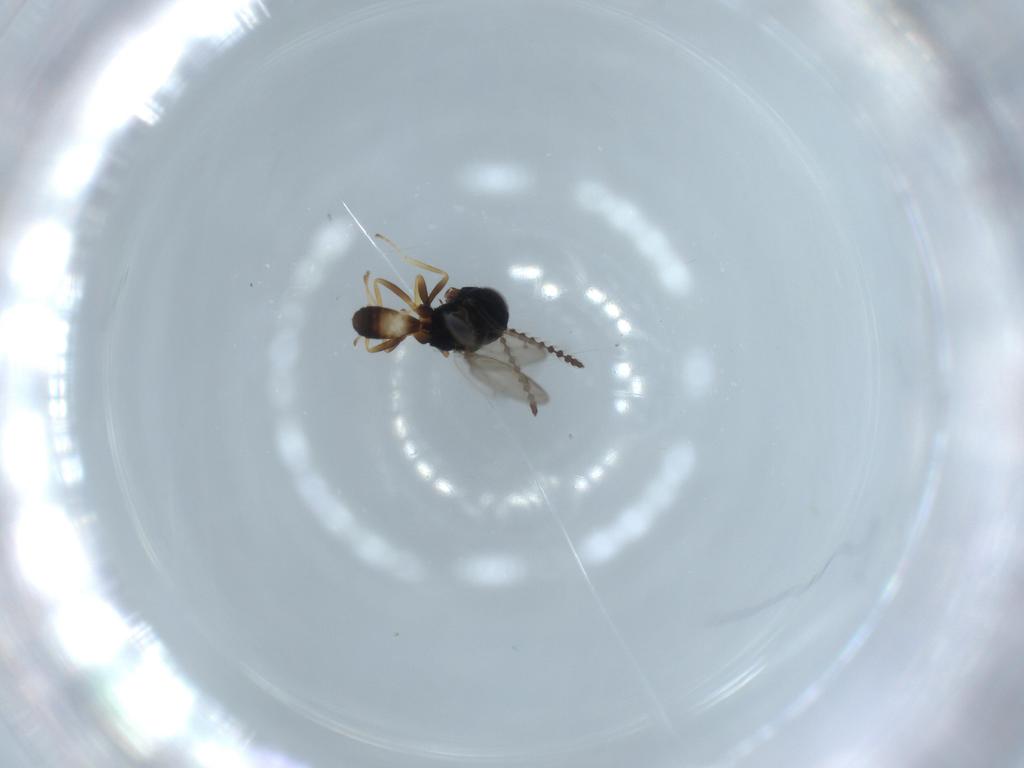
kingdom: Animalia
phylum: Arthropoda
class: Insecta
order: Hymenoptera
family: Pteromalidae
